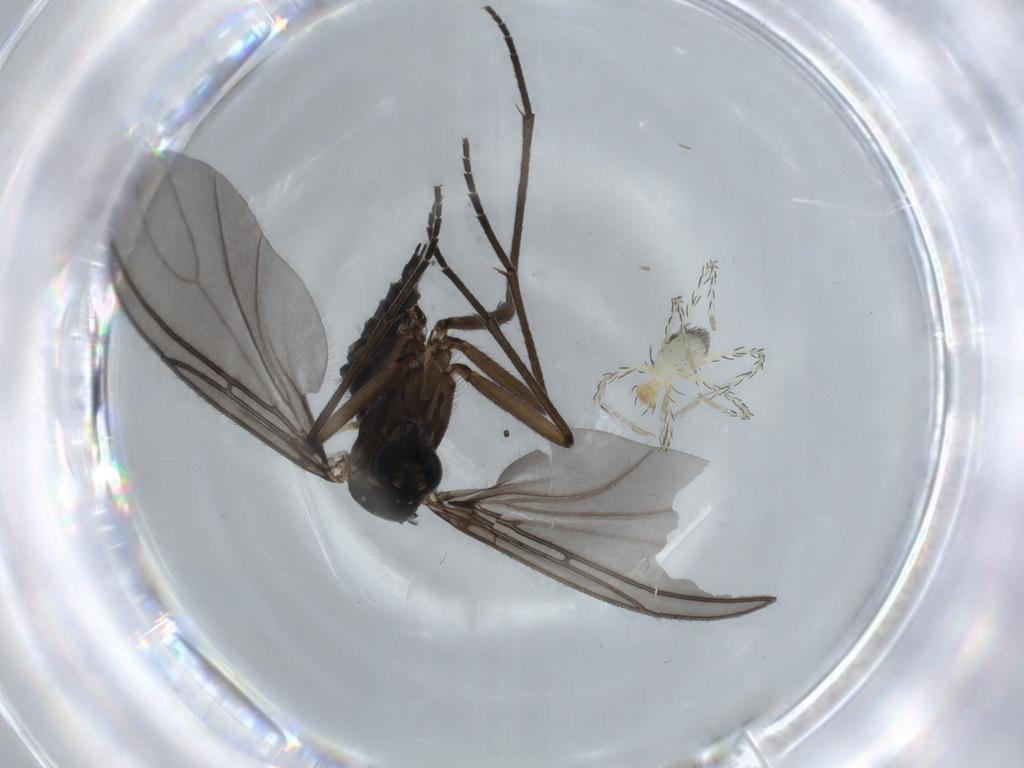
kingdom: Animalia
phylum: Arthropoda
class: Insecta
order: Diptera
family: Sciaridae
